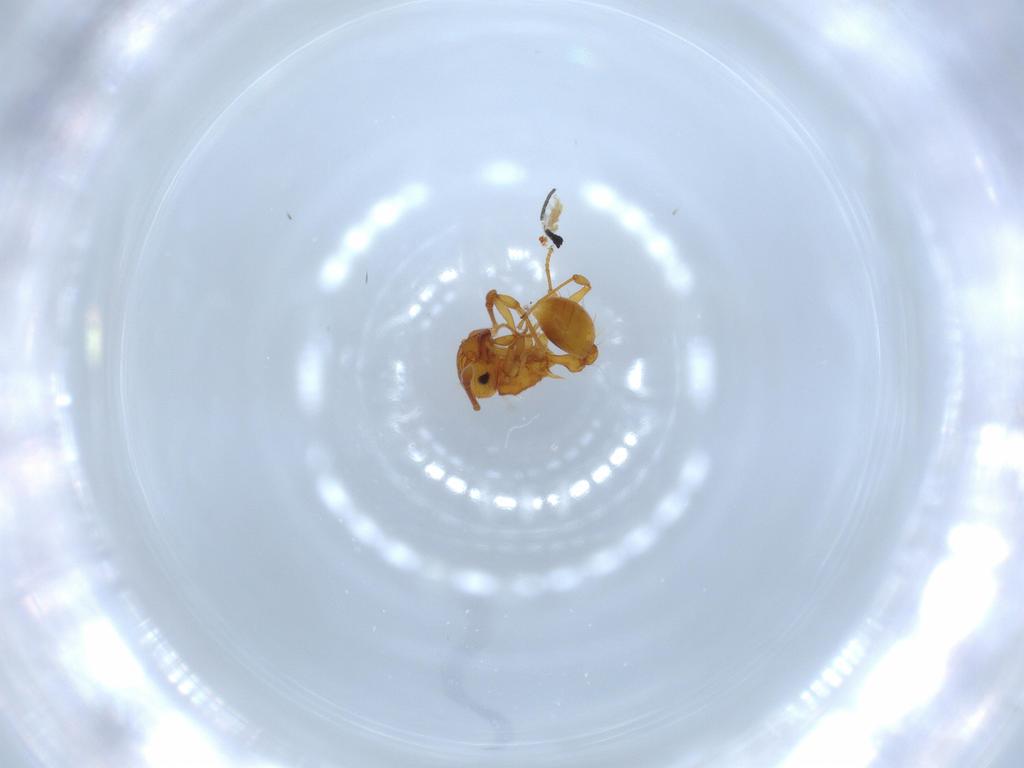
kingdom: Animalia
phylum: Arthropoda
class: Insecta
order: Hymenoptera
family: Formicidae
